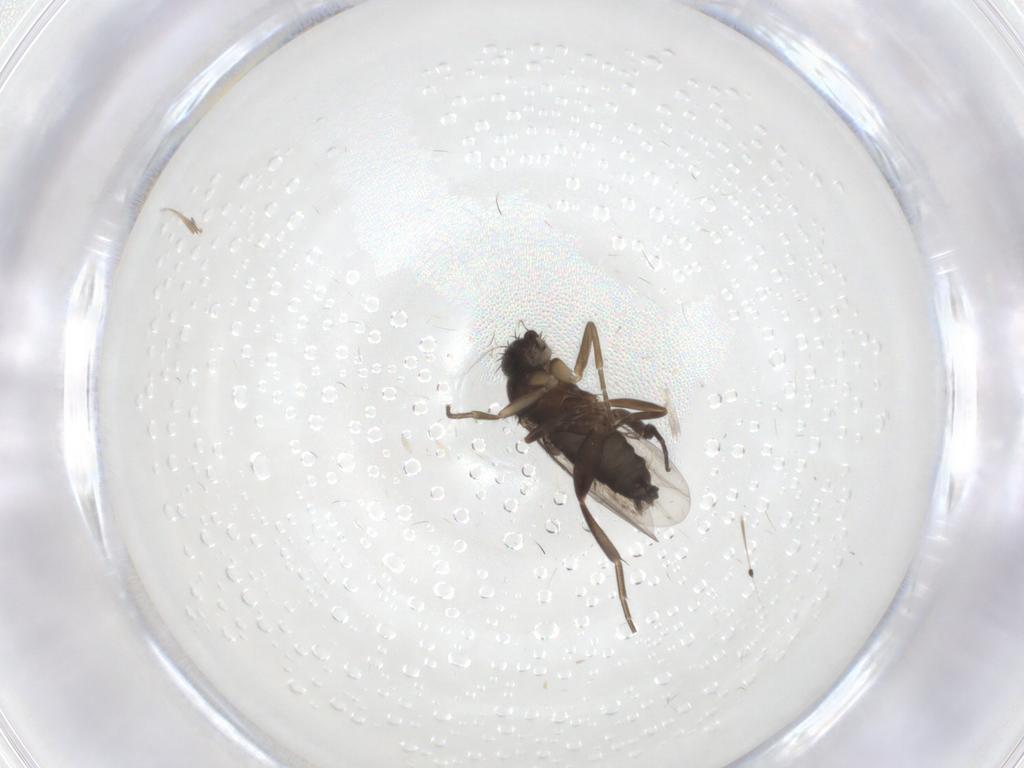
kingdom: Animalia
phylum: Arthropoda
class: Insecta
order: Diptera
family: Phoridae
